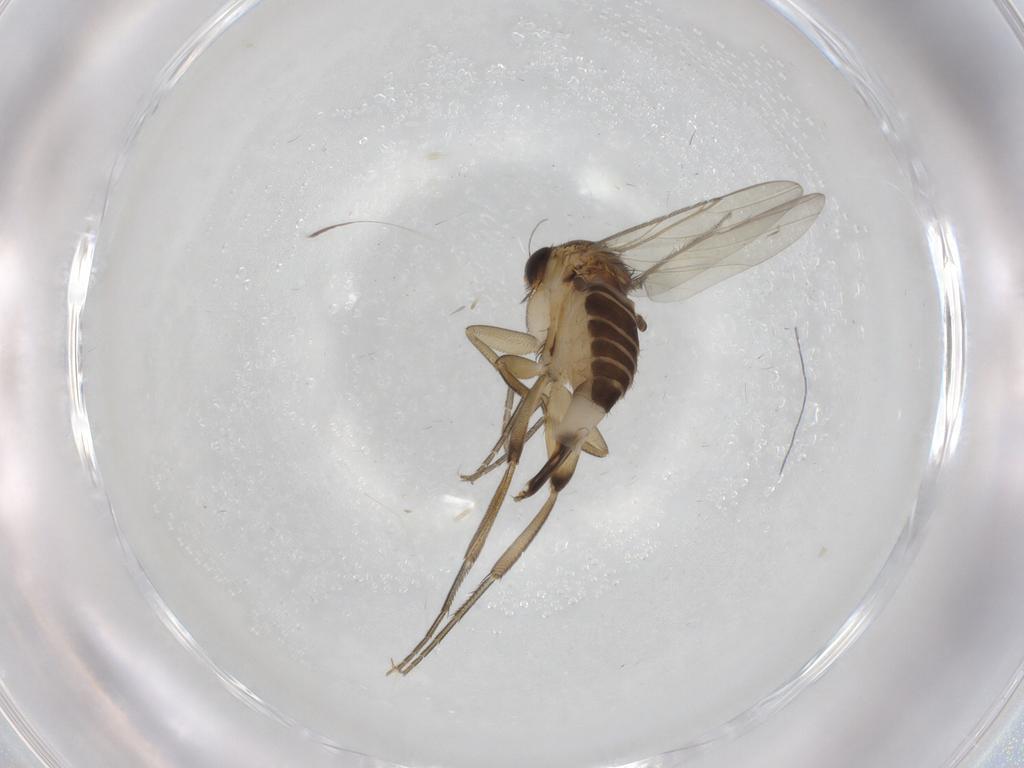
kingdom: Animalia
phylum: Arthropoda
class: Insecta
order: Diptera
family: Phoridae
